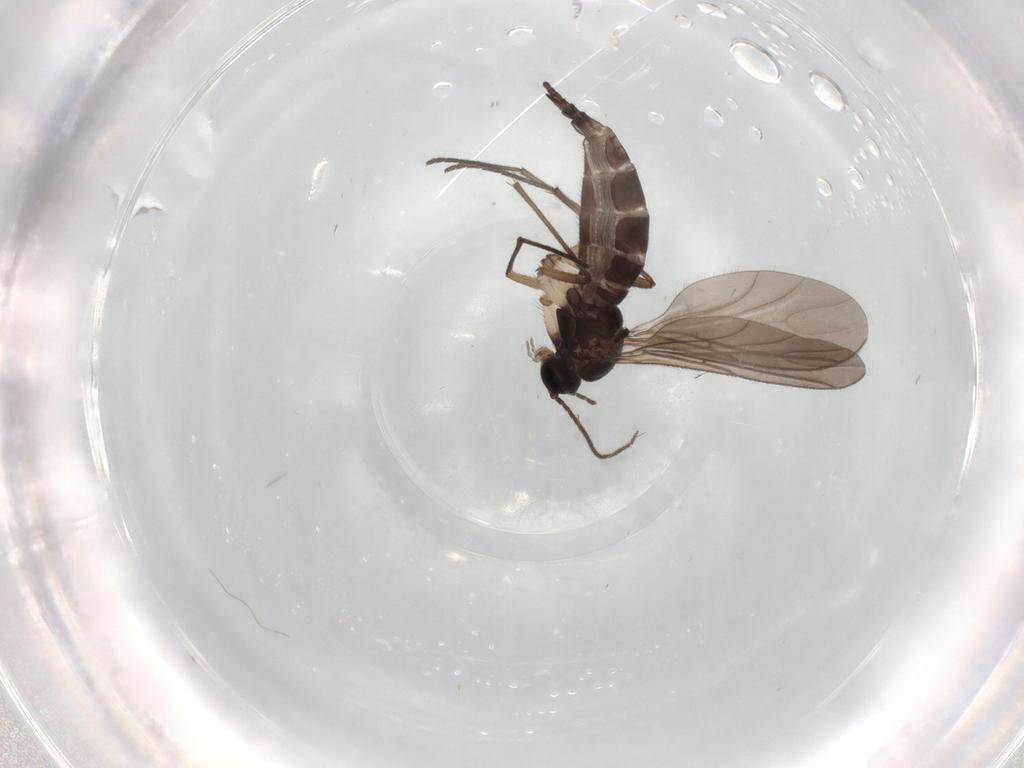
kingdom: Animalia
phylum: Arthropoda
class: Insecta
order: Diptera
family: Sciaridae
